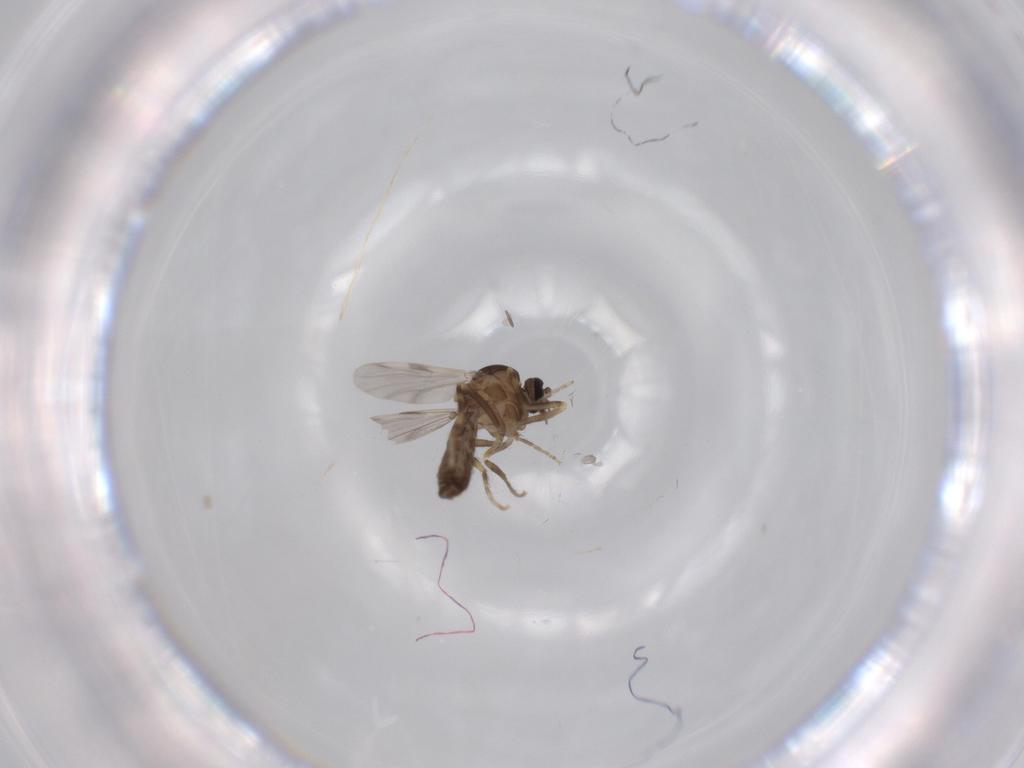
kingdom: Animalia
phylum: Arthropoda
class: Insecta
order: Diptera
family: Ceratopogonidae
